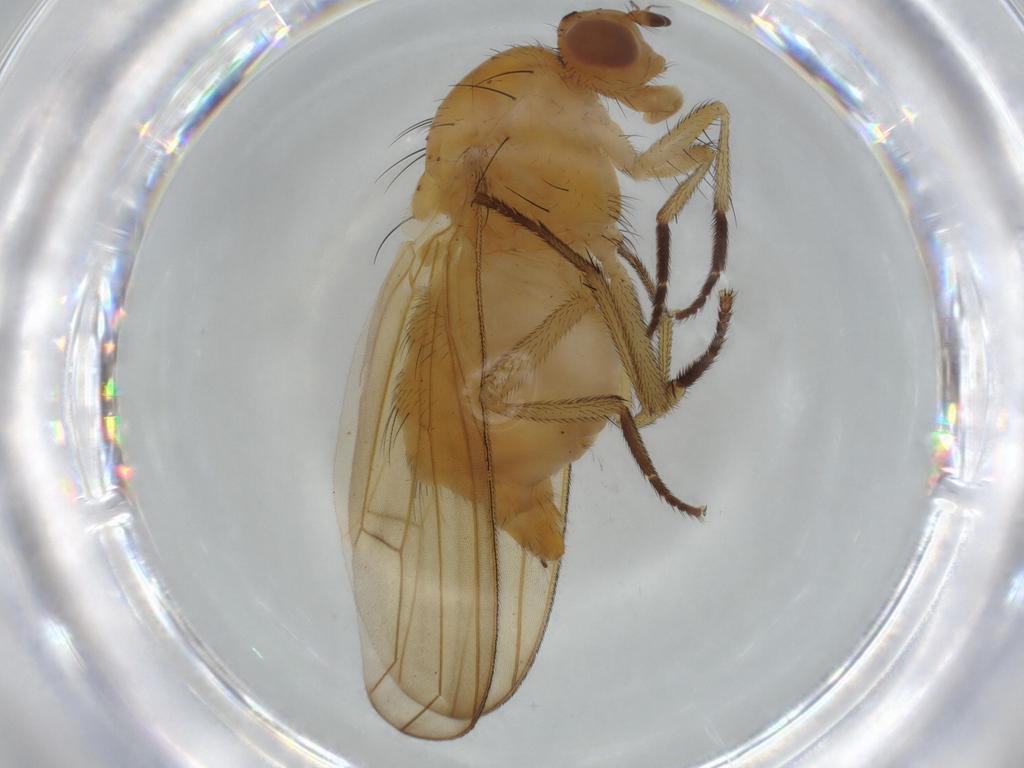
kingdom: Animalia
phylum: Arthropoda
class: Insecta
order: Diptera
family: Lauxaniidae
